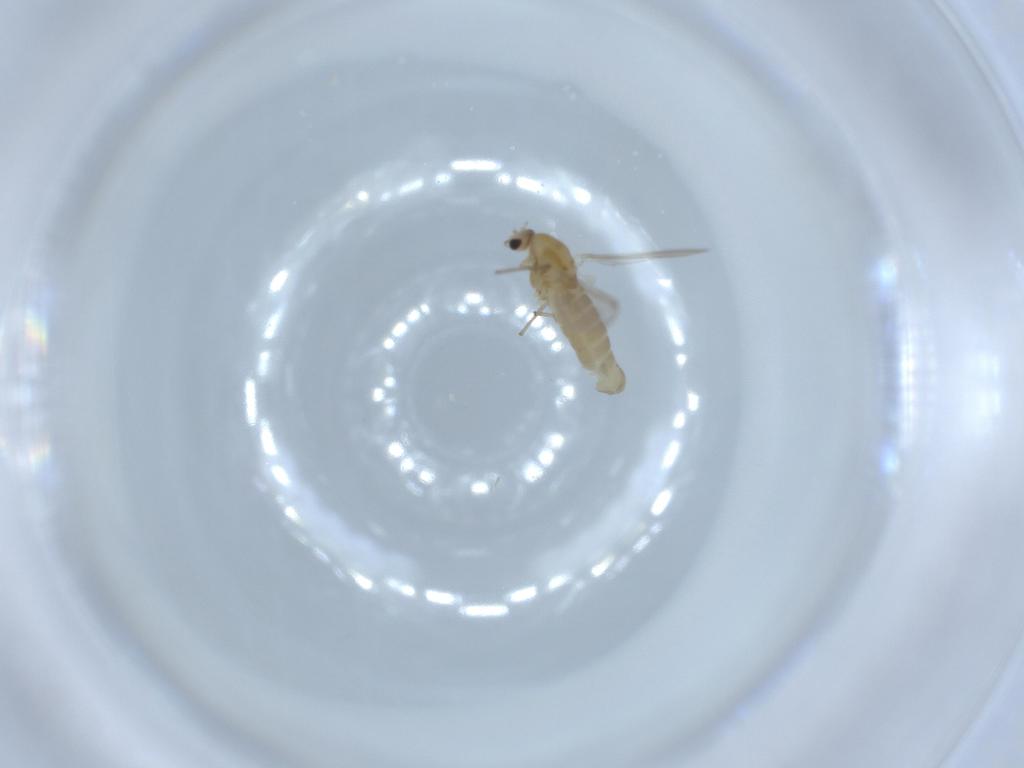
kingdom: Animalia
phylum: Arthropoda
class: Insecta
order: Diptera
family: Chironomidae
